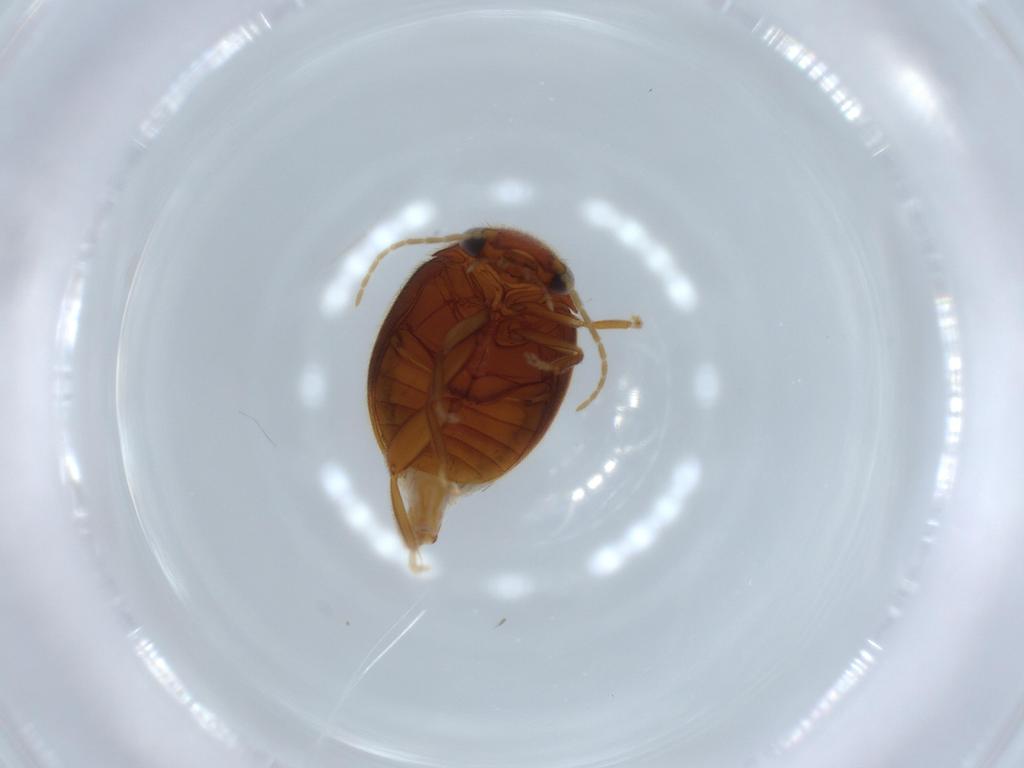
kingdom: Animalia
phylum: Arthropoda
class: Insecta
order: Coleoptera
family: Scirtidae
